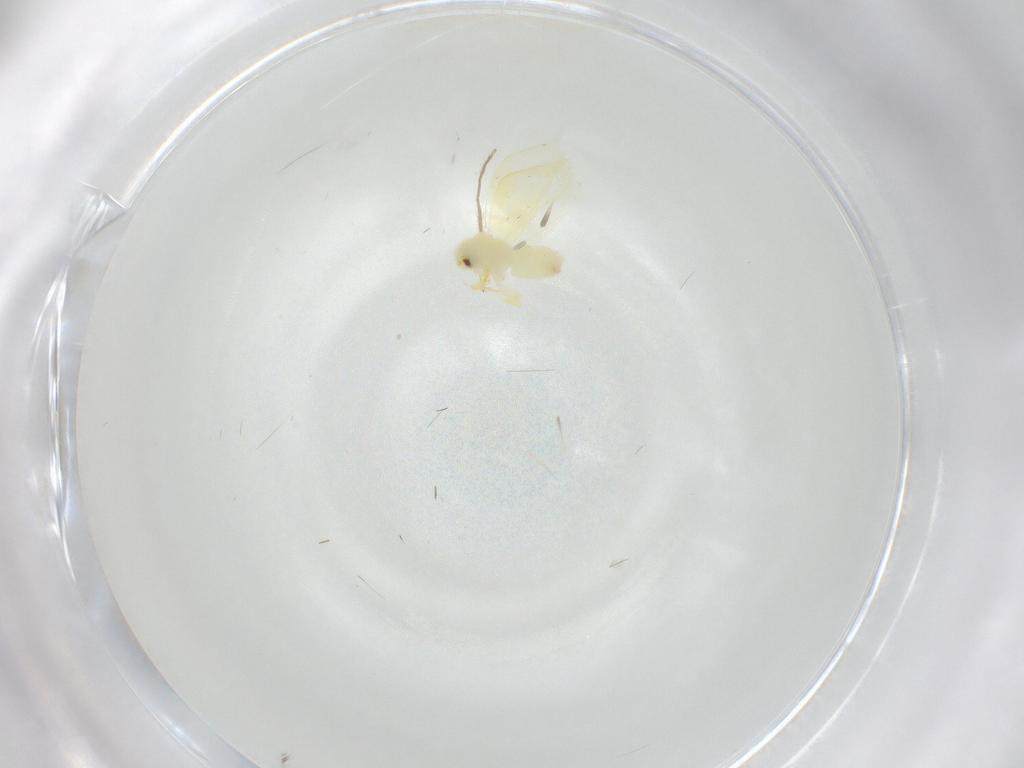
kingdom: Animalia
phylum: Arthropoda
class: Insecta
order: Hemiptera
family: Aleyrodidae
